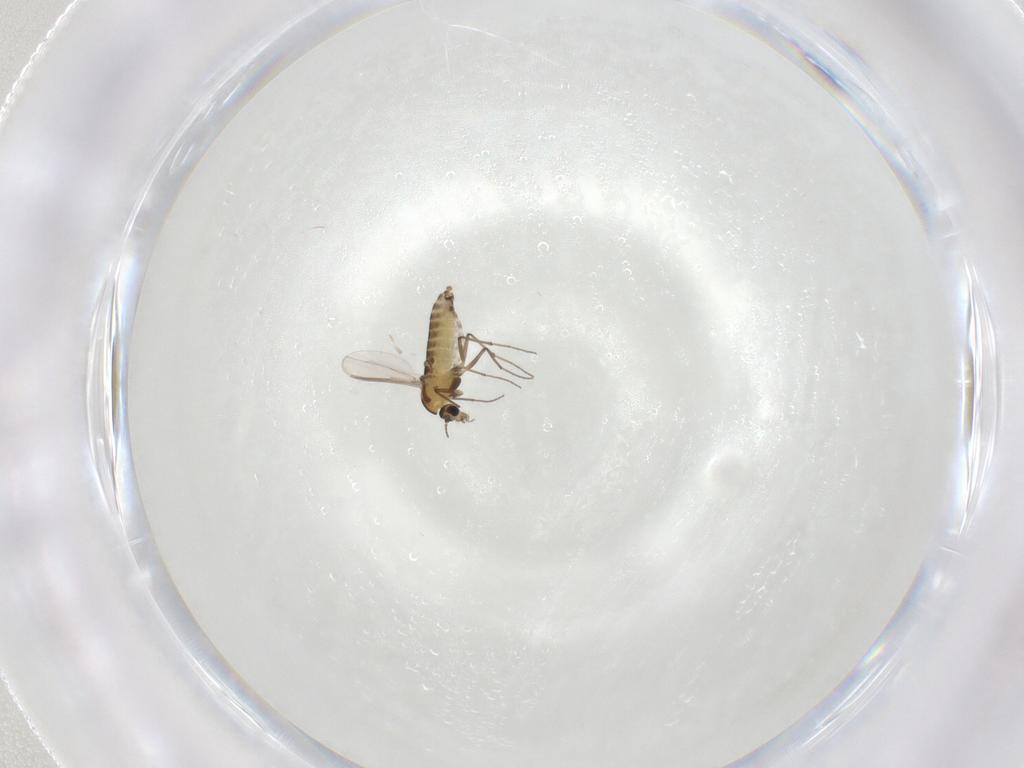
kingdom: Animalia
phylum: Arthropoda
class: Insecta
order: Diptera
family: Chironomidae
